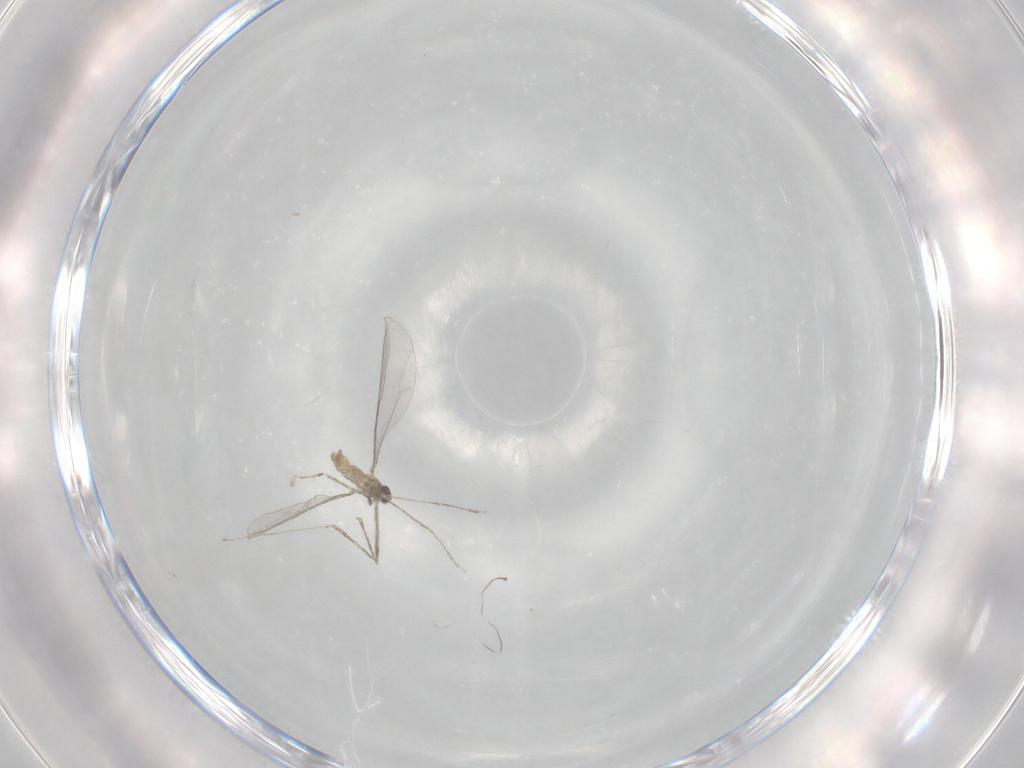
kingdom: Animalia
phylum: Arthropoda
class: Insecta
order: Diptera
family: Cecidomyiidae
